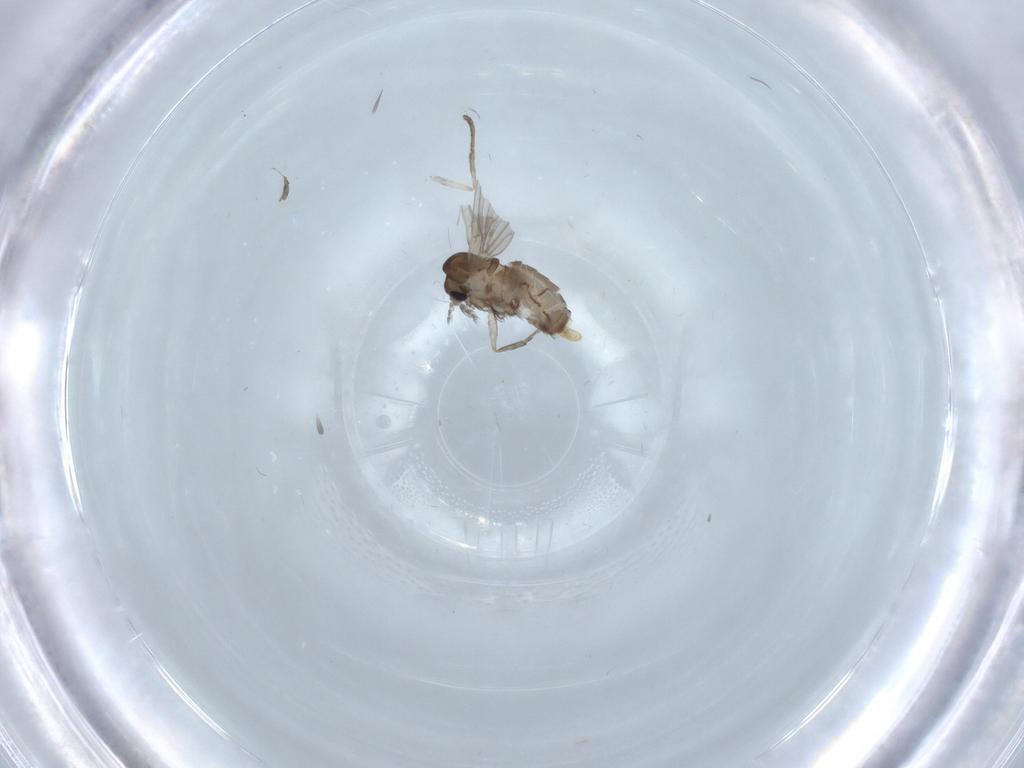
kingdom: Animalia
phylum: Arthropoda
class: Insecta
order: Diptera
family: Psychodidae
